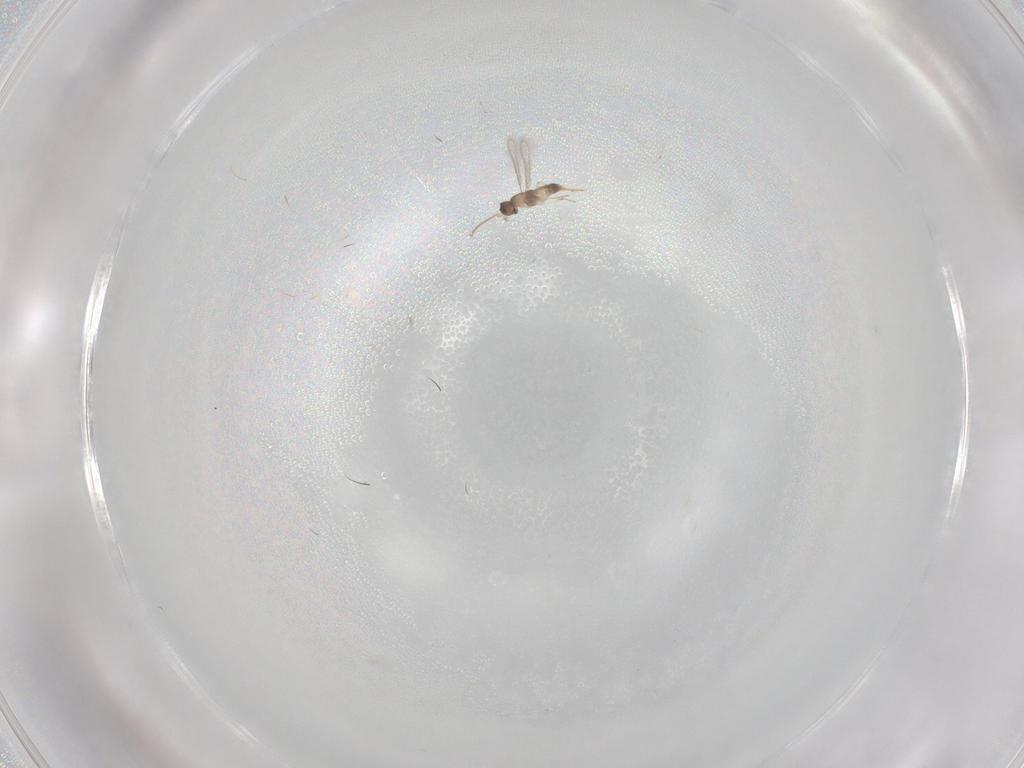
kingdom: Animalia
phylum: Arthropoda
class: Insecta
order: Hymenoptera
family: Mymaridae
